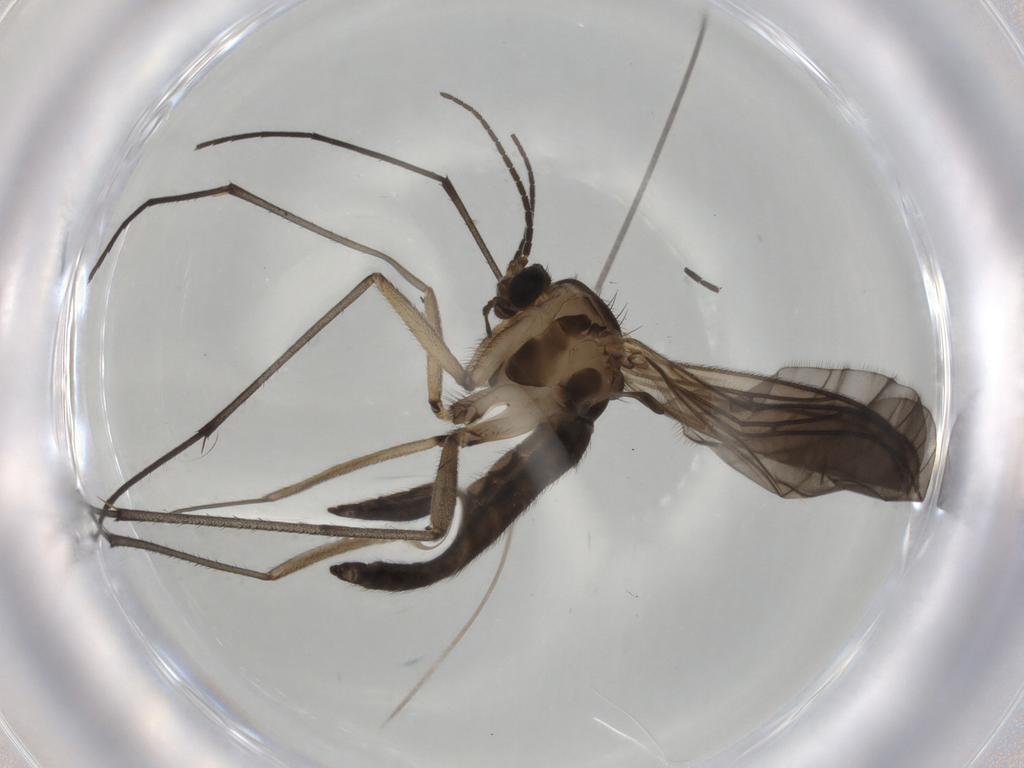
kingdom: Animalia
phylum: Arthropoda
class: Insecta
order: Diptera
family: Sciaridae
